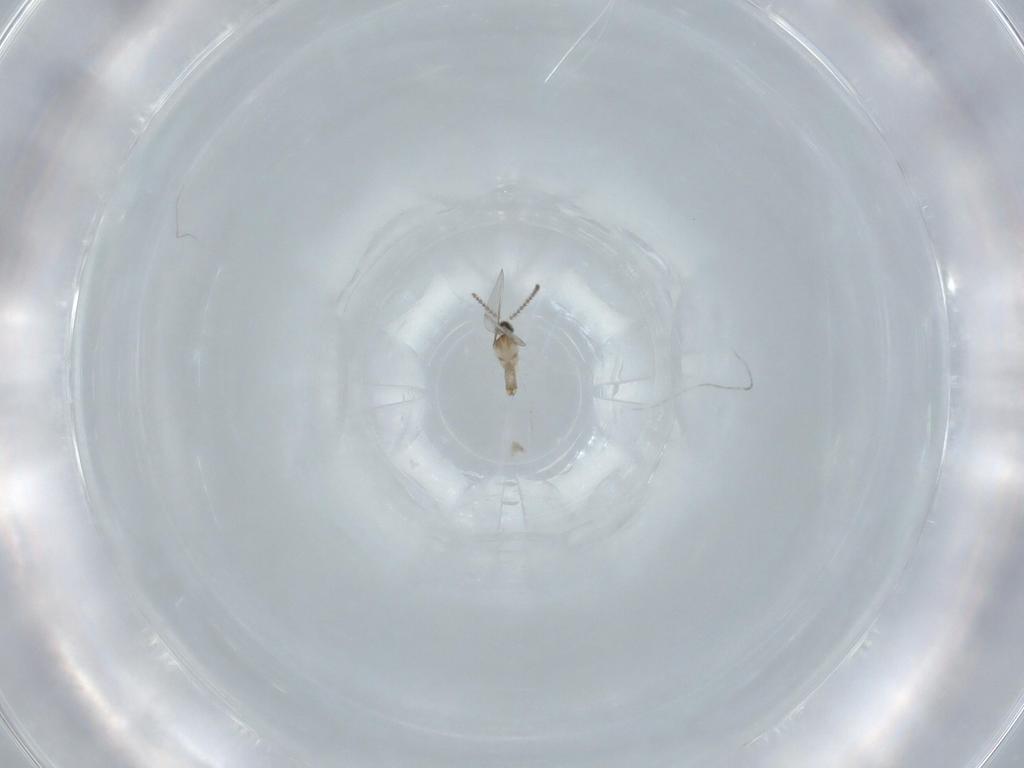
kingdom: Animalia
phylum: Arthropoda
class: Insecta
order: Diptera
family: Cecidomyiidae
